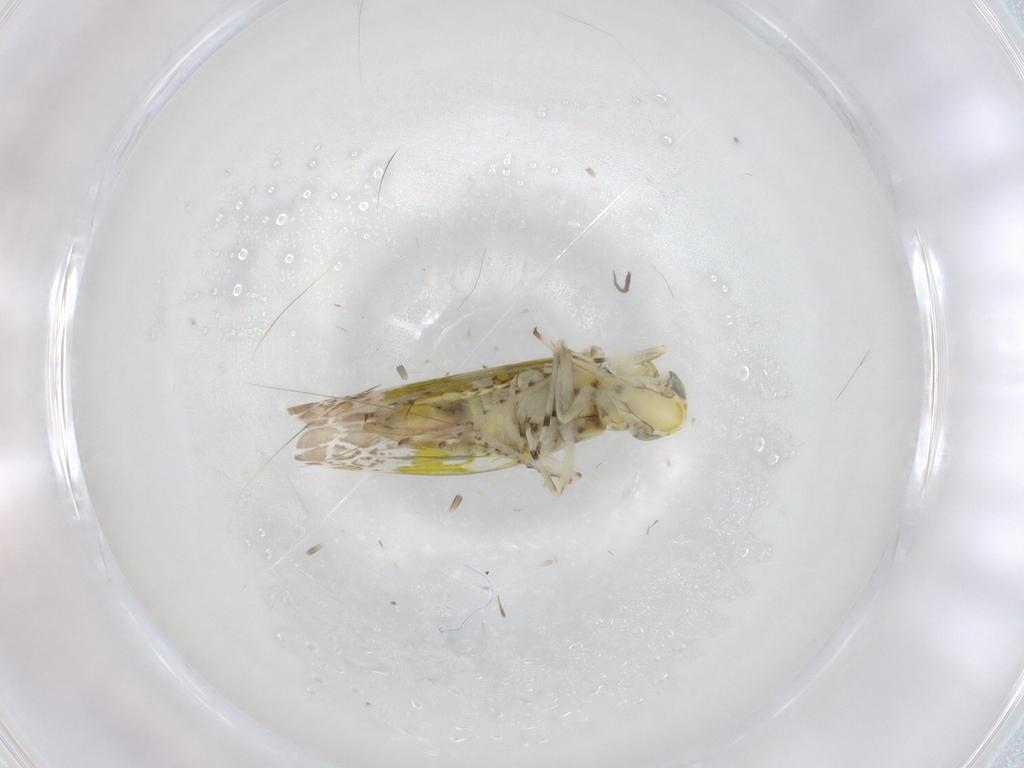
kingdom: Animalia
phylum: Arthropoda
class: Insecta
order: Hemiptera
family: Cicadellidae
